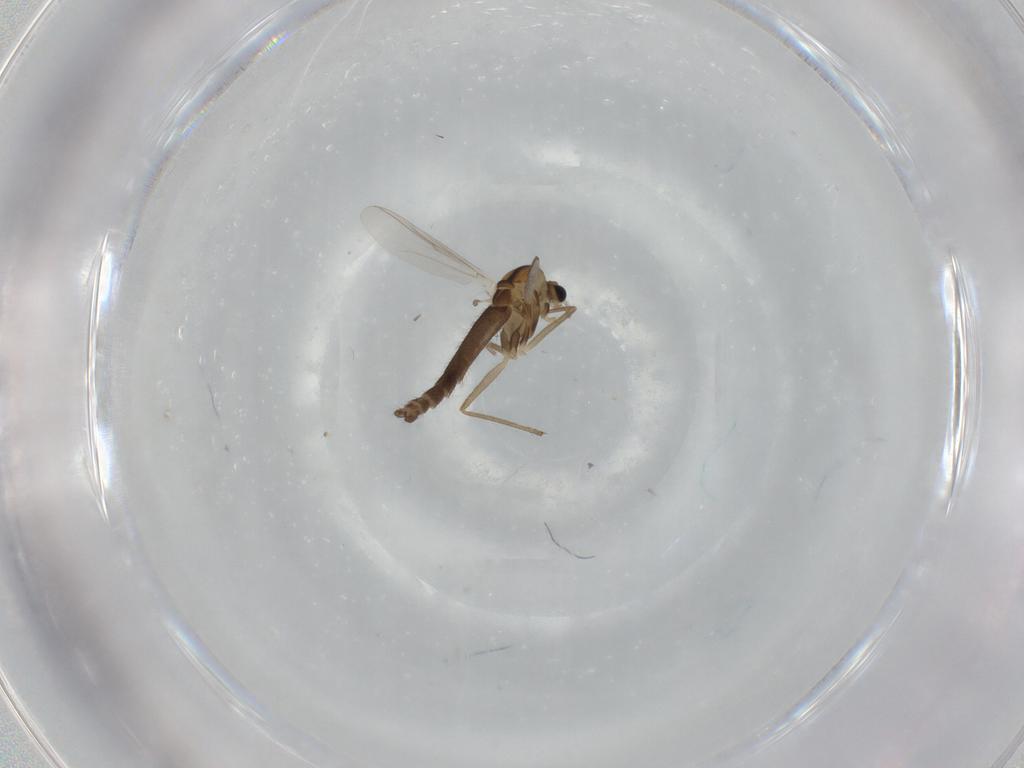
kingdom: Animalia
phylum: Arthropoda
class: Insecta
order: Diptera
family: Chironomidae
